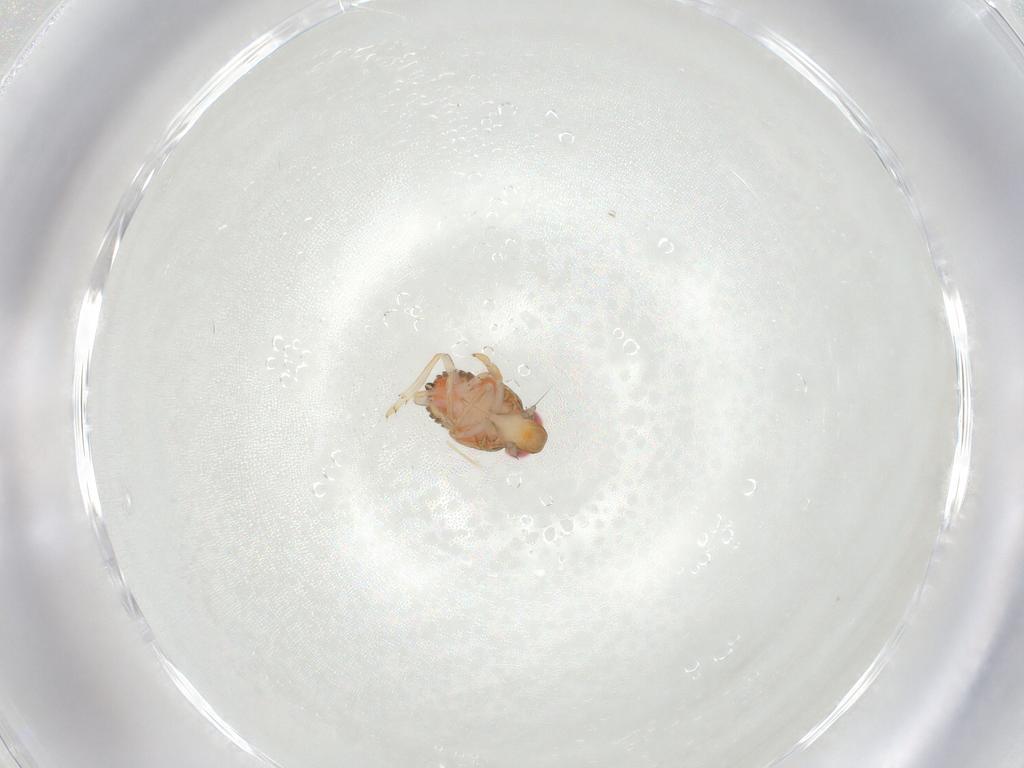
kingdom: Animalia
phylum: Arthropoda
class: Insecta
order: Hemiptera
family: Issidae
